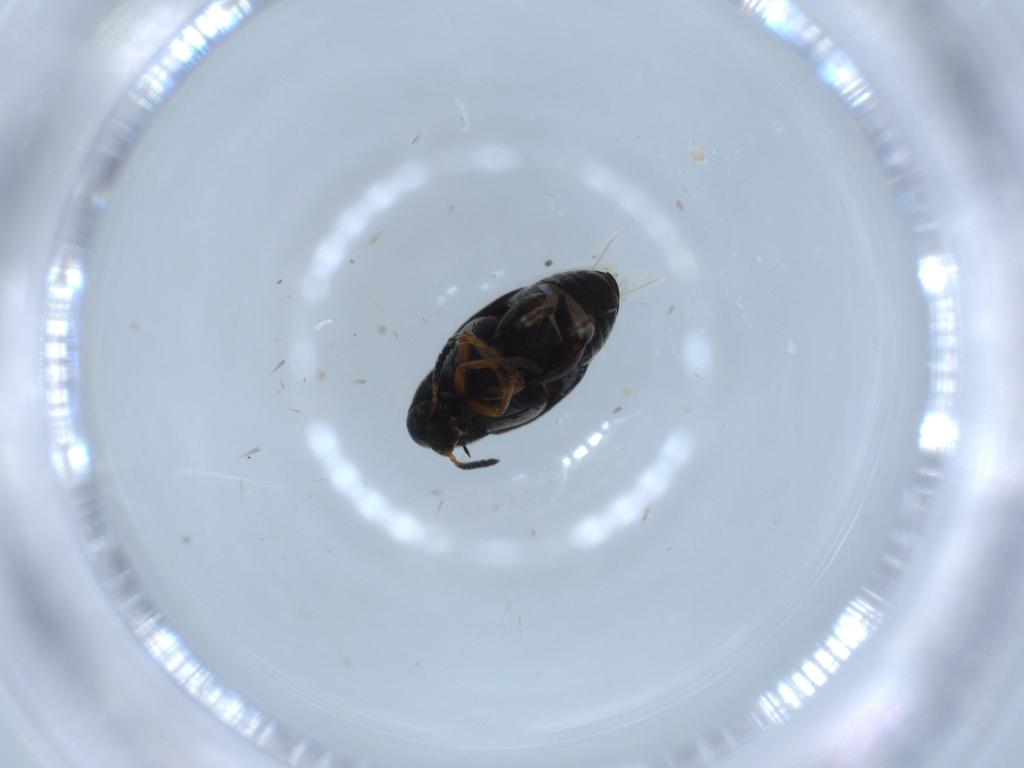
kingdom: Animalia
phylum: Arthropoda
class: Insecta
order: Coleoptera
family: Chrysomelidae
